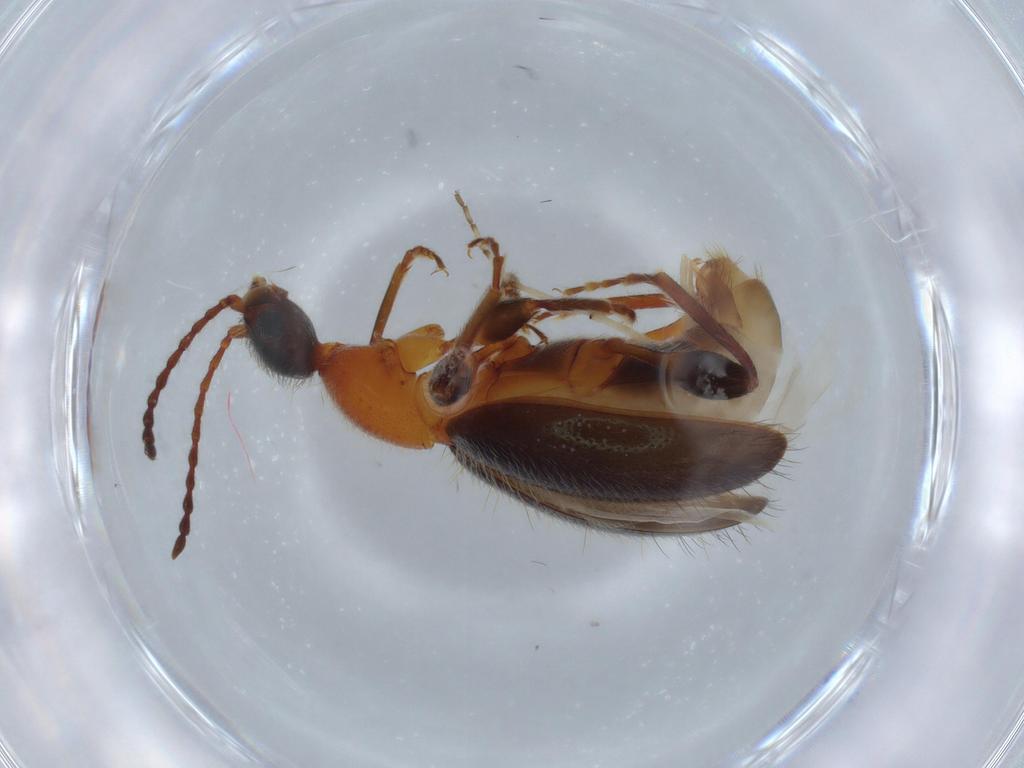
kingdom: Animalia
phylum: Arthropoda
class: Insecta
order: Coleoptera
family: Anthicidae
